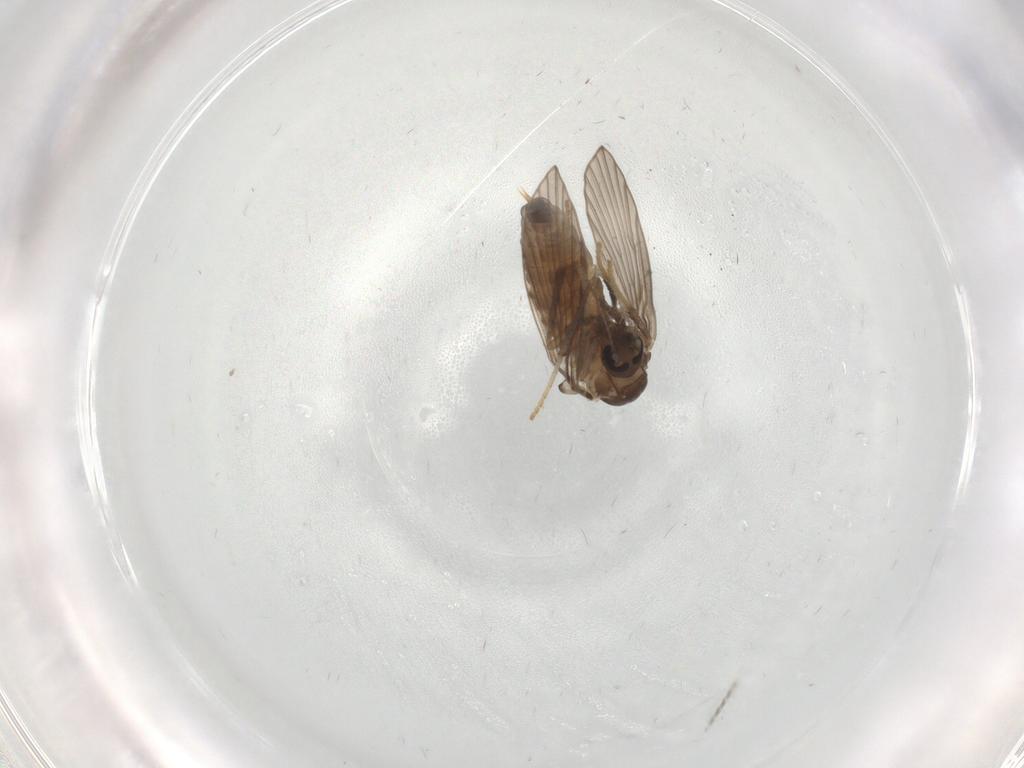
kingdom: Animalia
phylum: Arthropoda
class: Insecta
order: Diptera
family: Psychodidae
